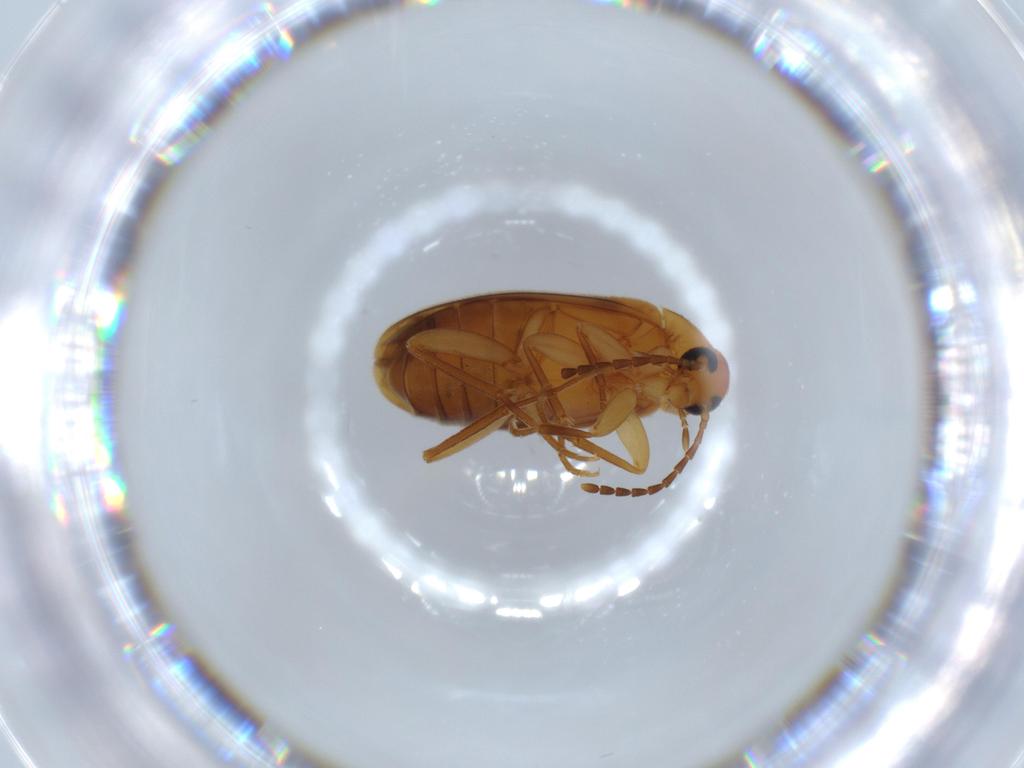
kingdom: Animalia
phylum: Arthropoda
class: Insecta
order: Coleoptera
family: Scraptiidae
